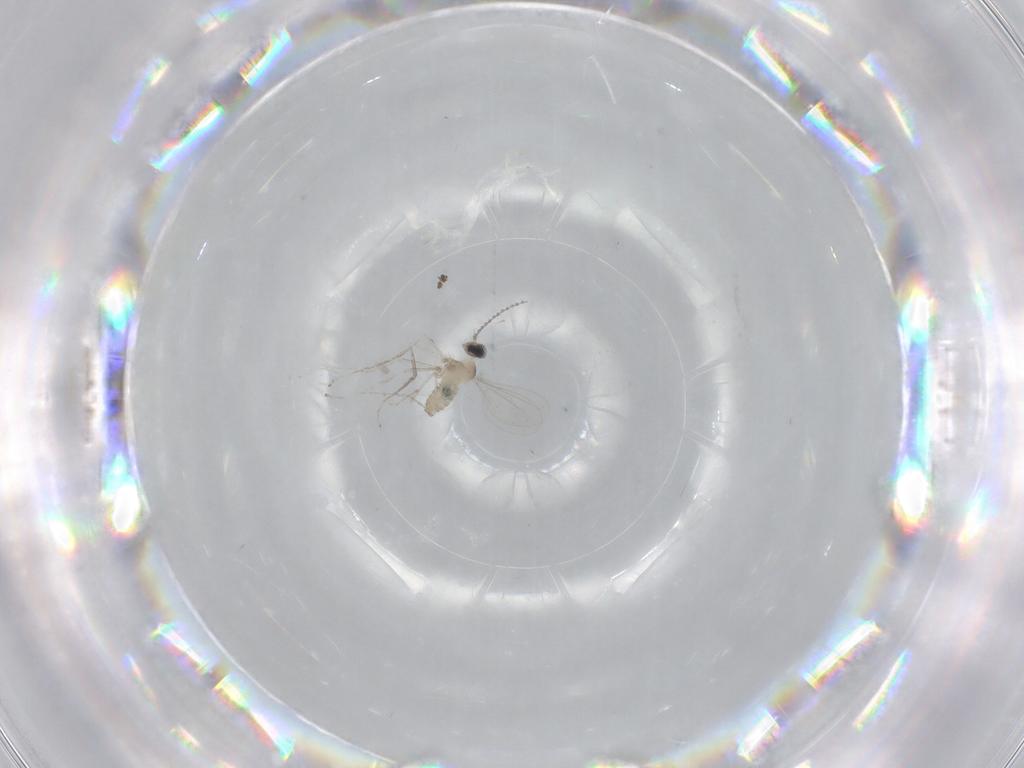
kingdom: Animalia
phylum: Arthropoda
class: Insecta
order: Diptera
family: Cecidomyiidae
